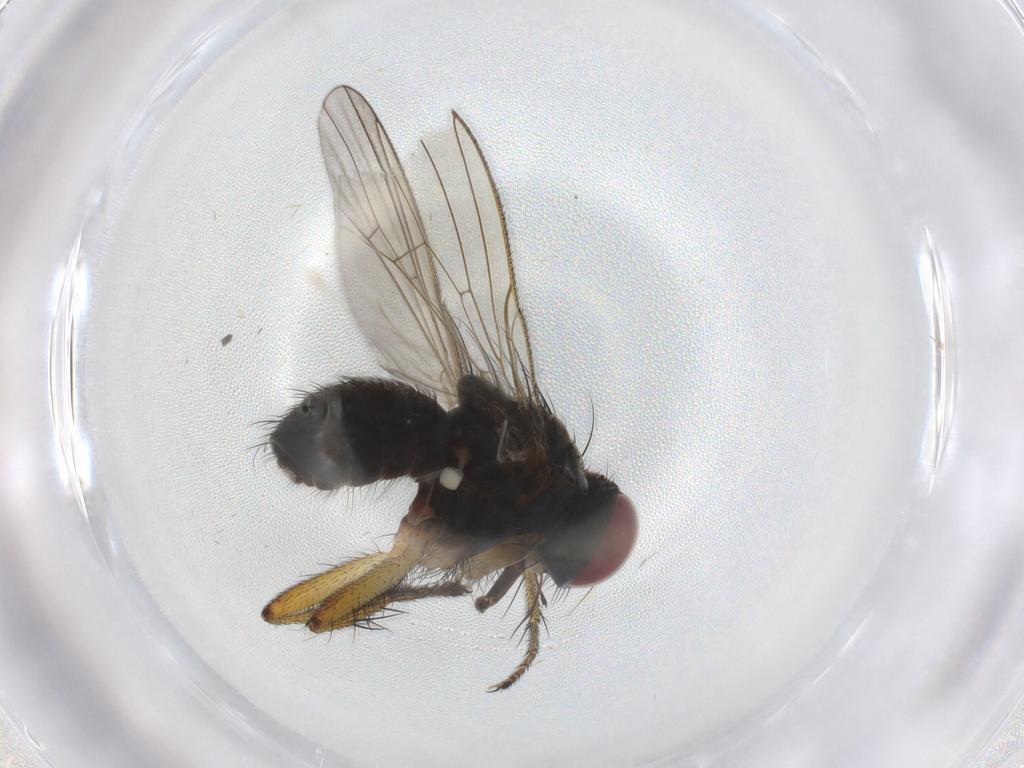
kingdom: Animalia
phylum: Arthropoda
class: Insecta
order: Diptera
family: Muscidae
